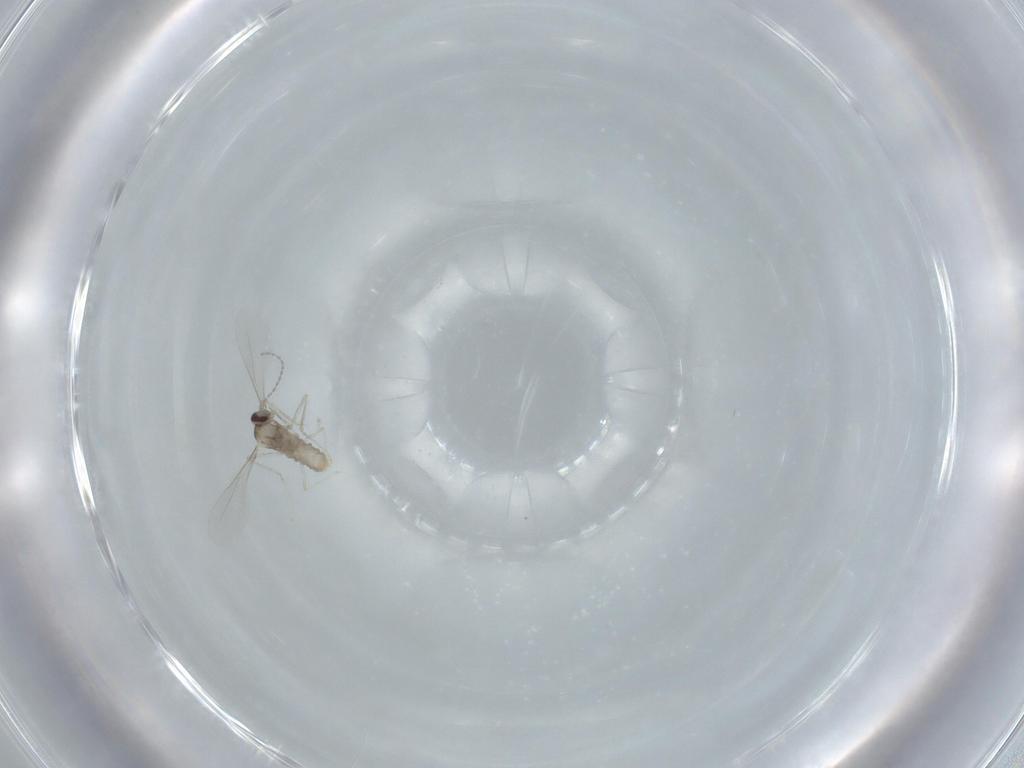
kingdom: Animalia
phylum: Arthropoda
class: Insecta
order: Diptera
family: Cecidomyiidae
